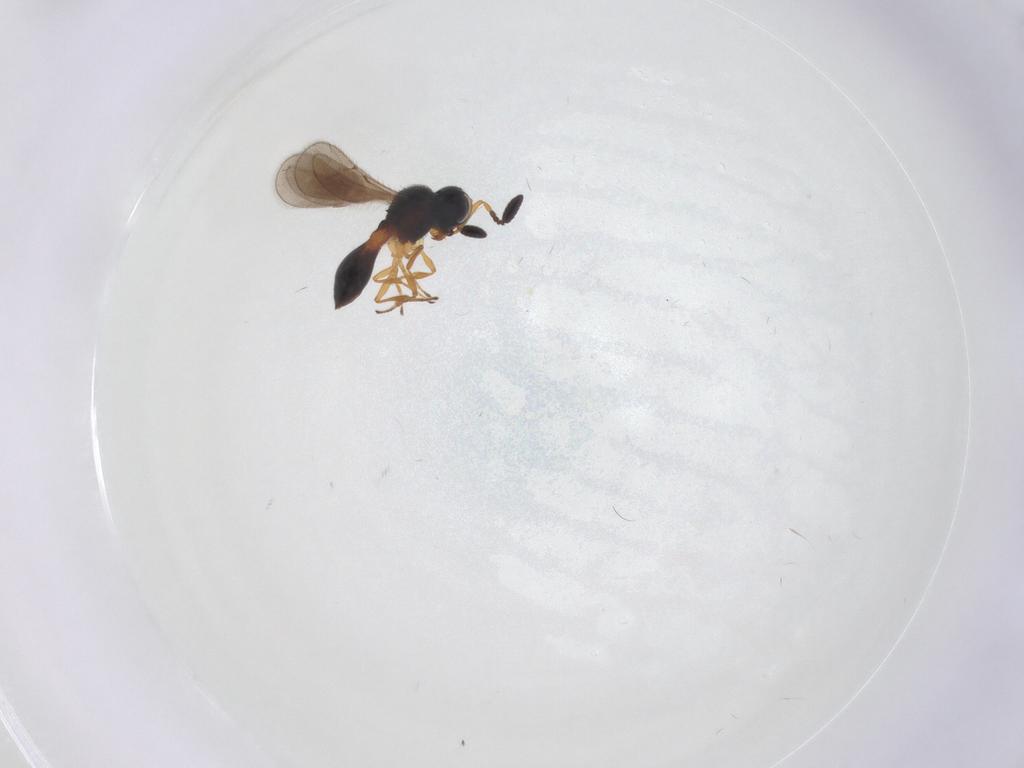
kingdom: Animalia
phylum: Arthropoda
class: Insecta
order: Hymenoptera
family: Scelionidae
